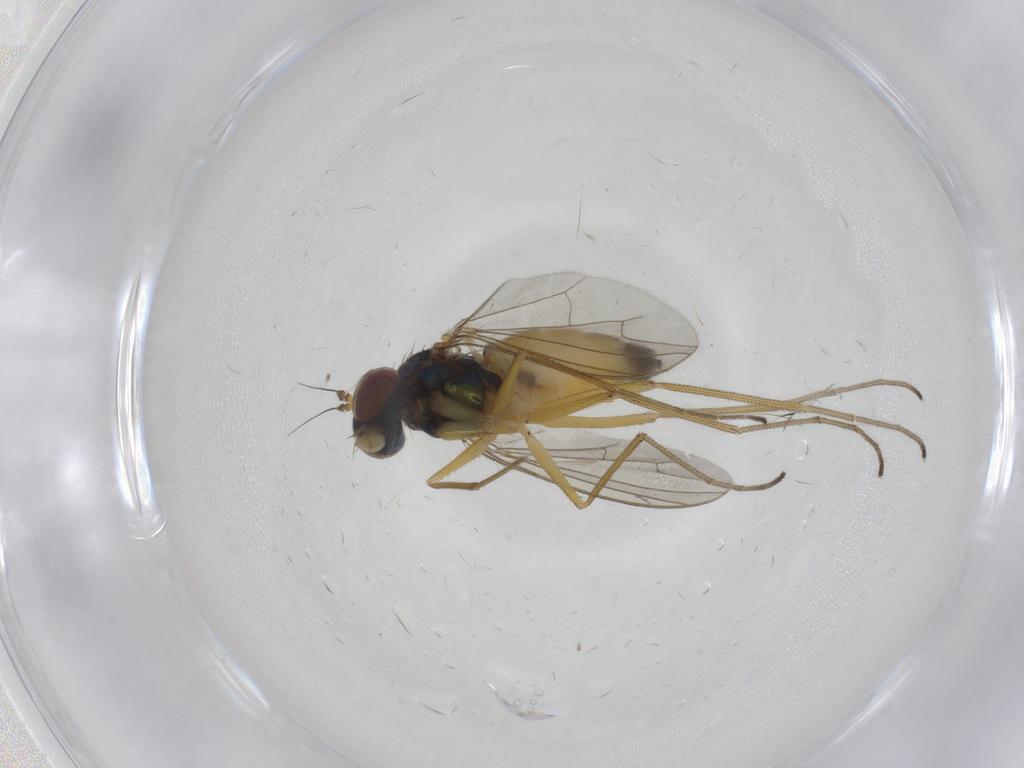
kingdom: Animalia
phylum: Arthropoda
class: Insecta
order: Diptera
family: Dolichopodidae
